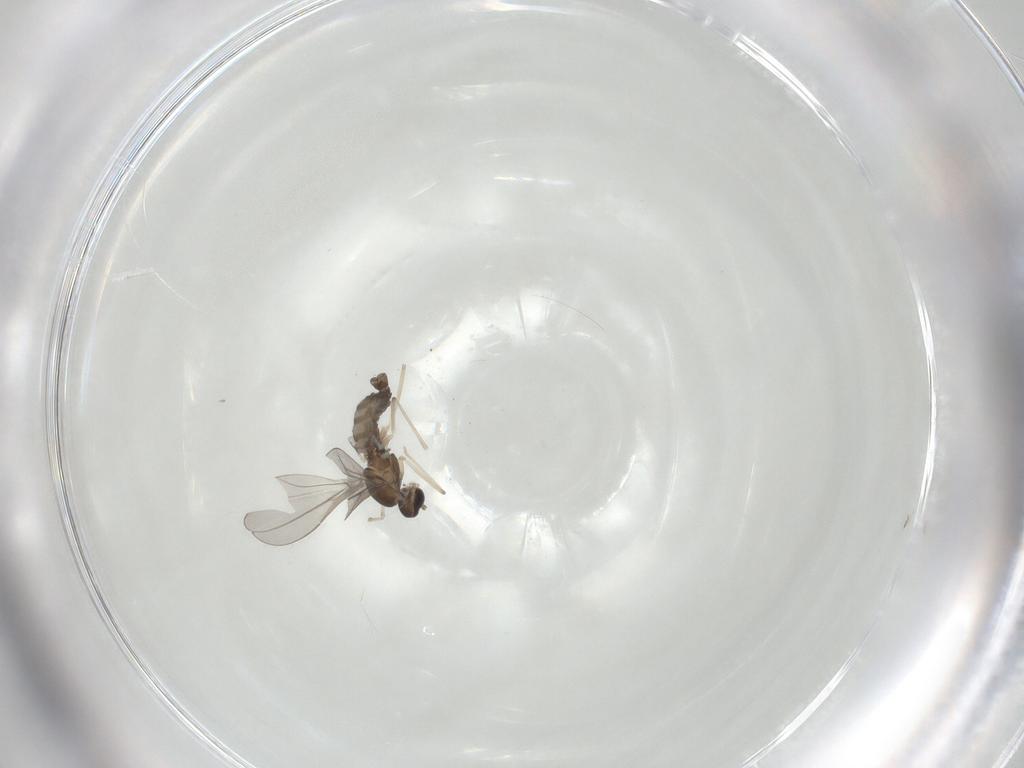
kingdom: Animalia
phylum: Arthropoda
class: Insecta
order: Diptera
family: Cecidomyiidae
